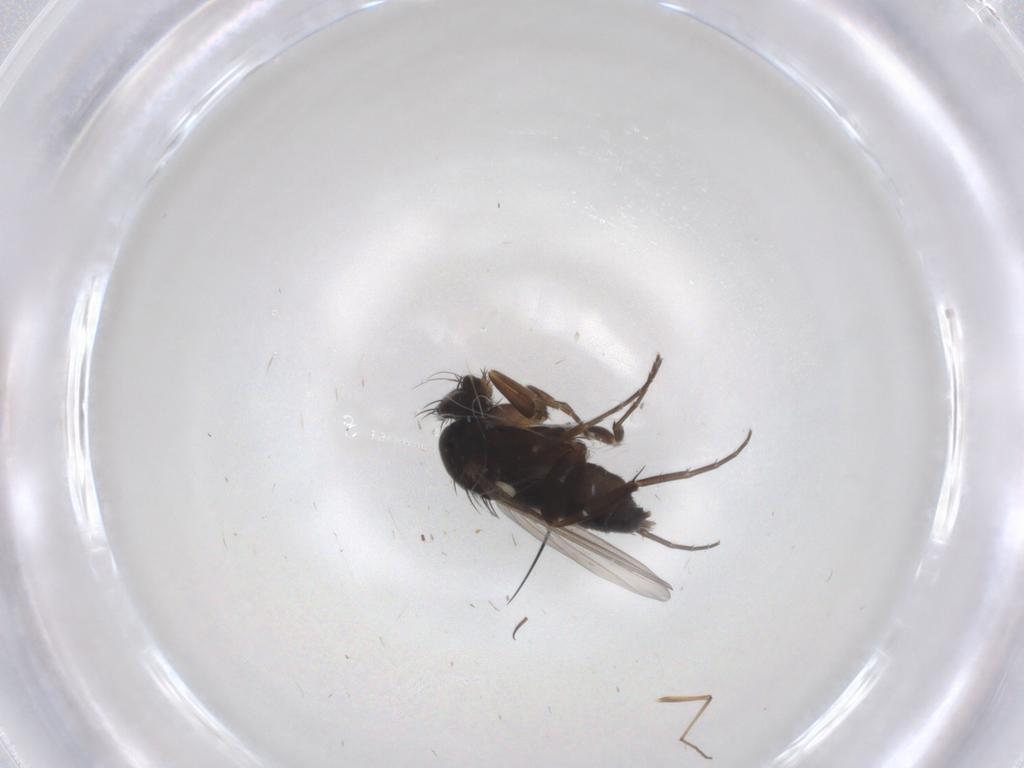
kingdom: Animalia
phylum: Arthropoda
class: Insecta
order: Diptera
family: Phoridae
